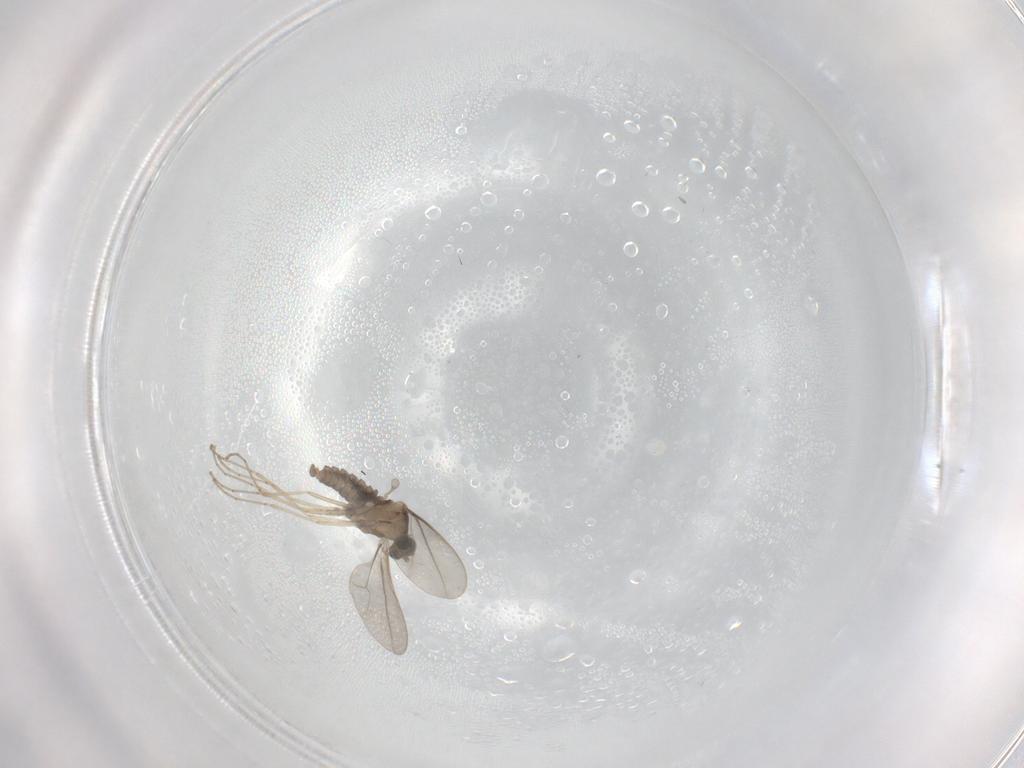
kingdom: Animalia
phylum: Arthropoda
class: Insecta
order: Diptera
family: Cecidomyiidae
